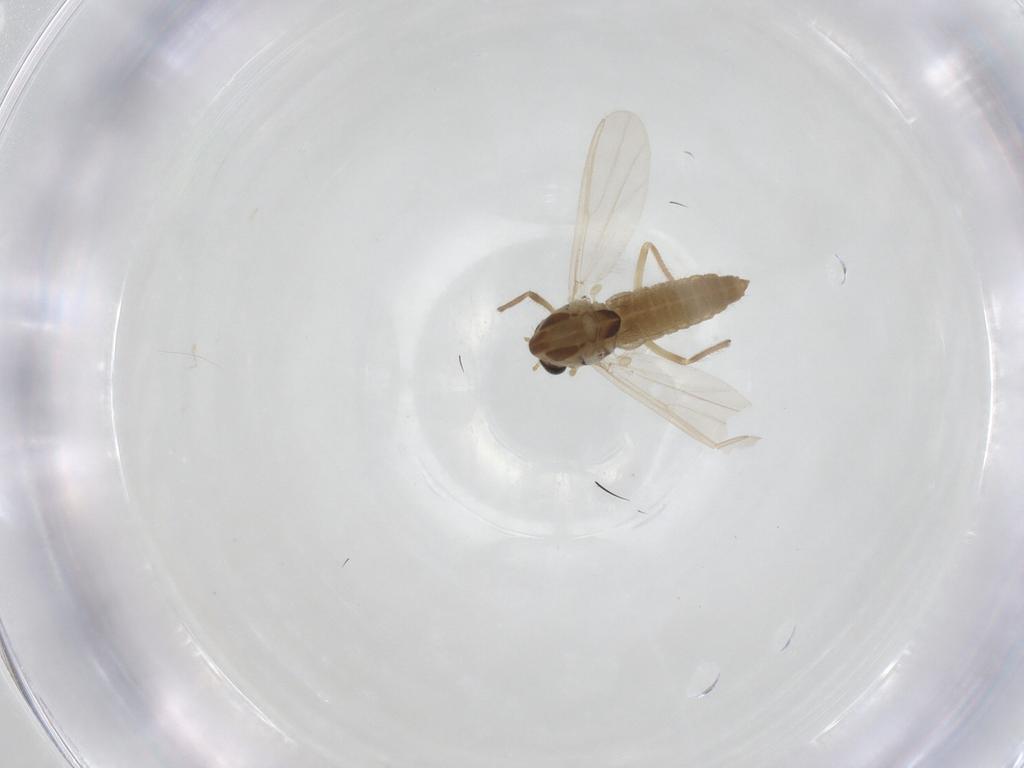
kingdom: Animalia
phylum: Arthropoda
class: Insecta
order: Diptera
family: Chironomidae
